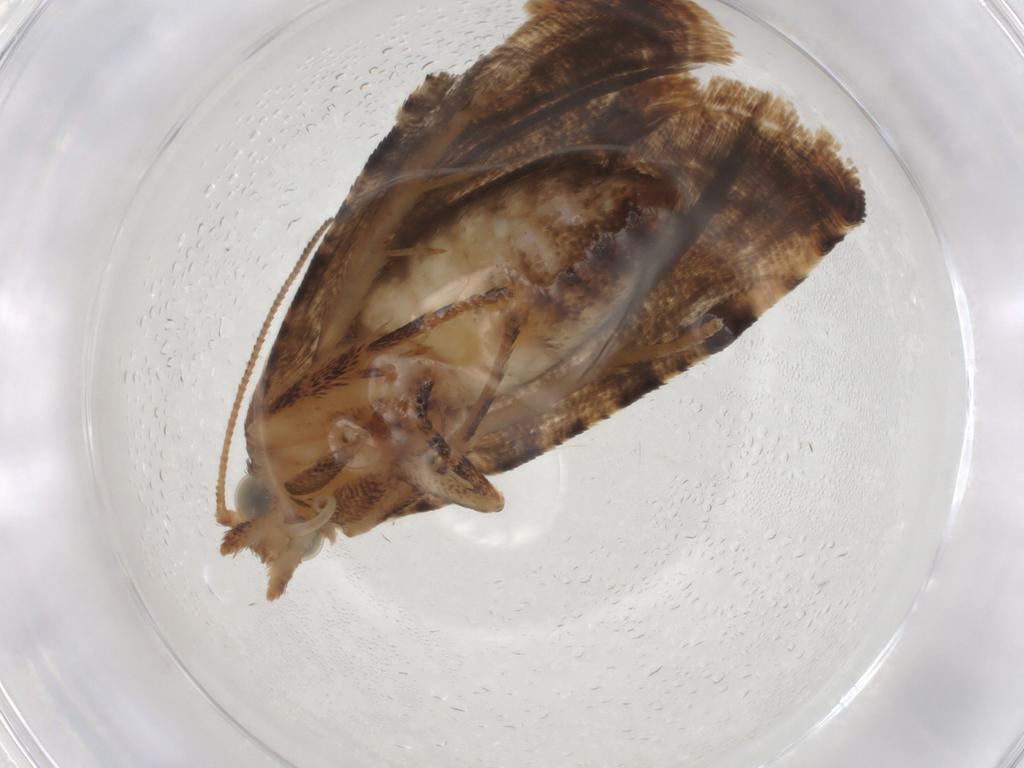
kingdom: Animalia
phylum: Arthropoda
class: Insecta
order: Lepidoptera
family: Tortricidae
